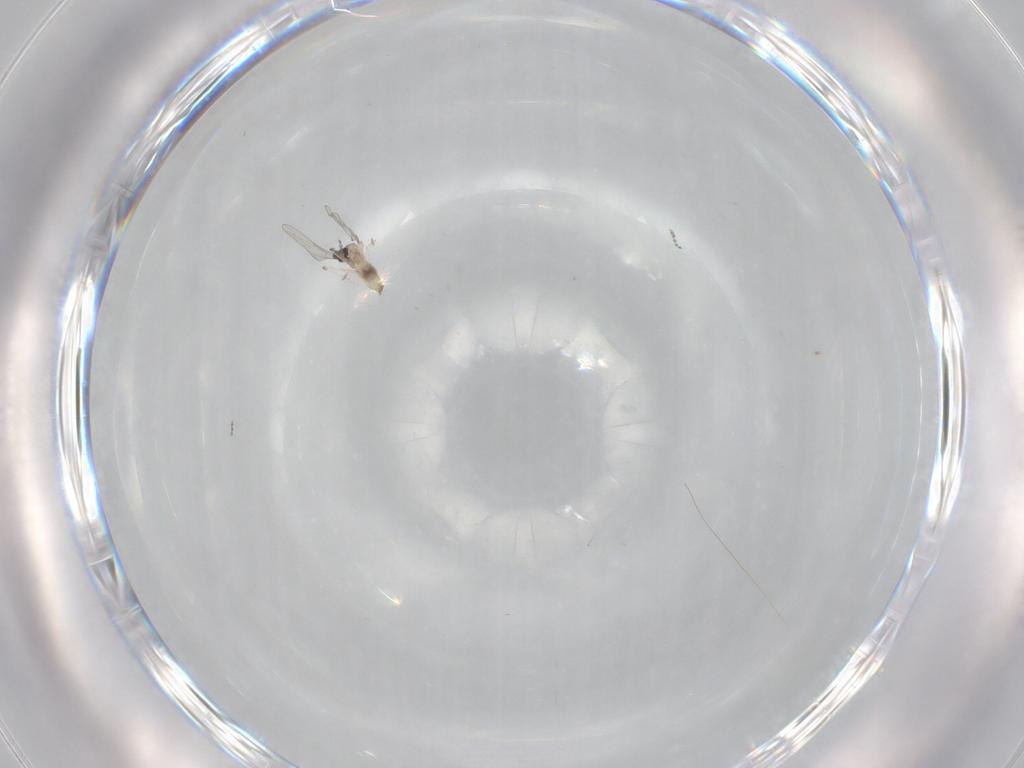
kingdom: Animalia
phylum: Arthropoda
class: Insecta
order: Diptera
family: Cecidomyiidae
